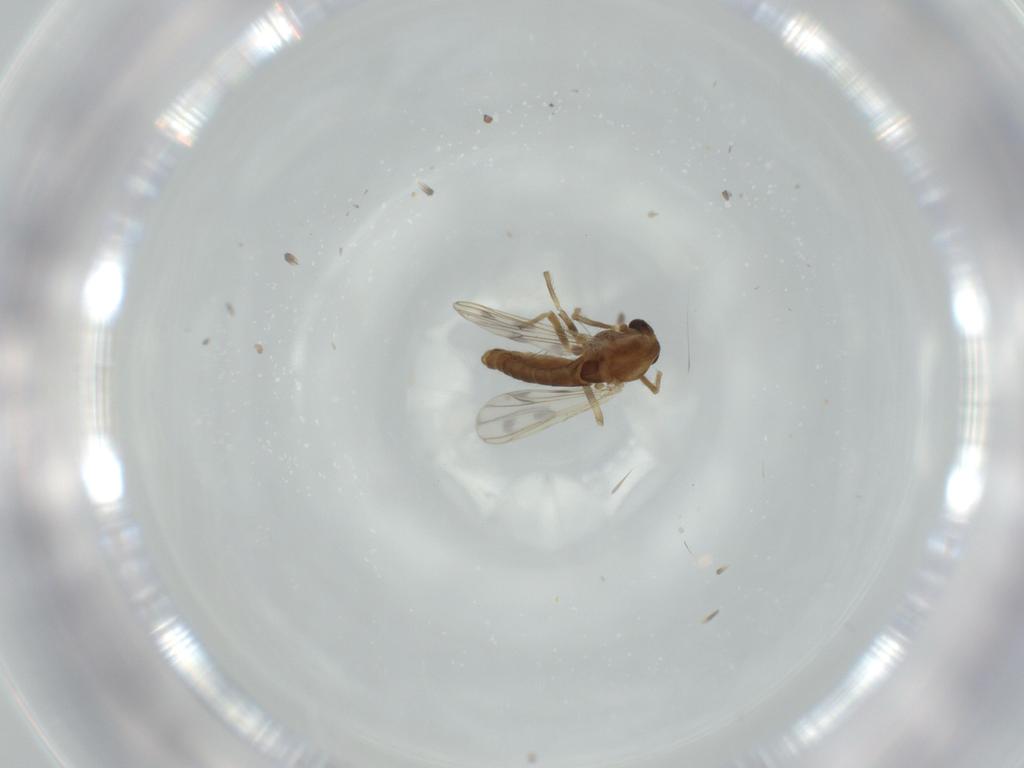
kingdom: Animalia
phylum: Arthropoda
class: Insecta
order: Diptera
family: Chironomidae
